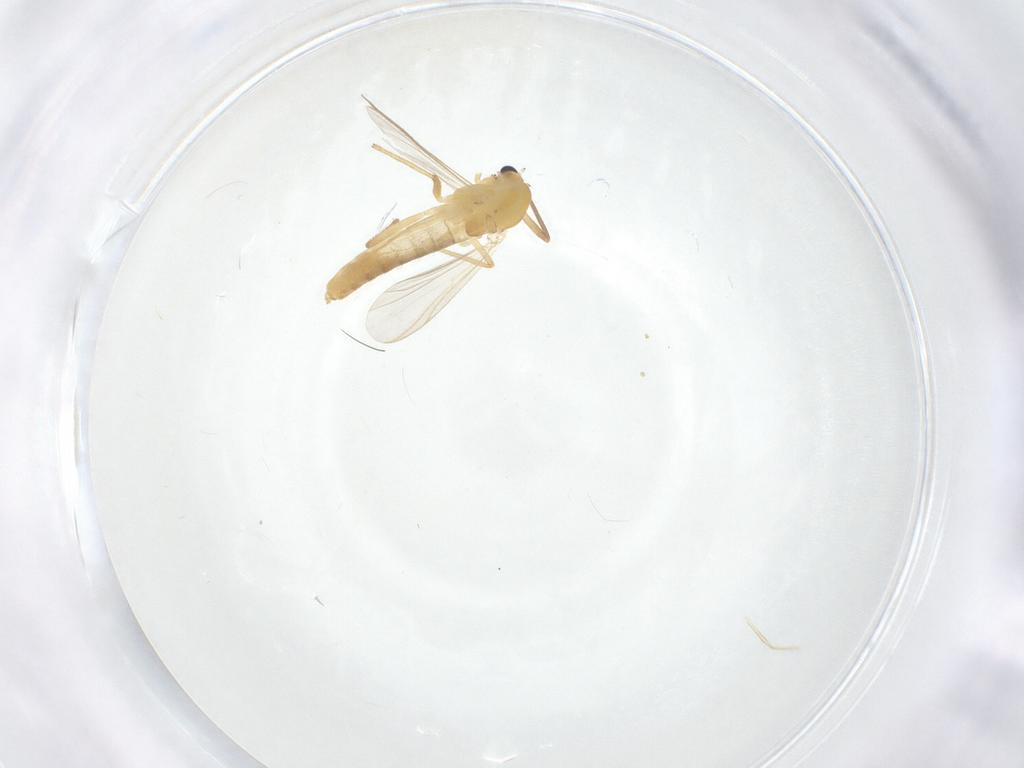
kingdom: Animalia
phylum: Arthropoda
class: Insecta
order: Diptera
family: Chironomidae
